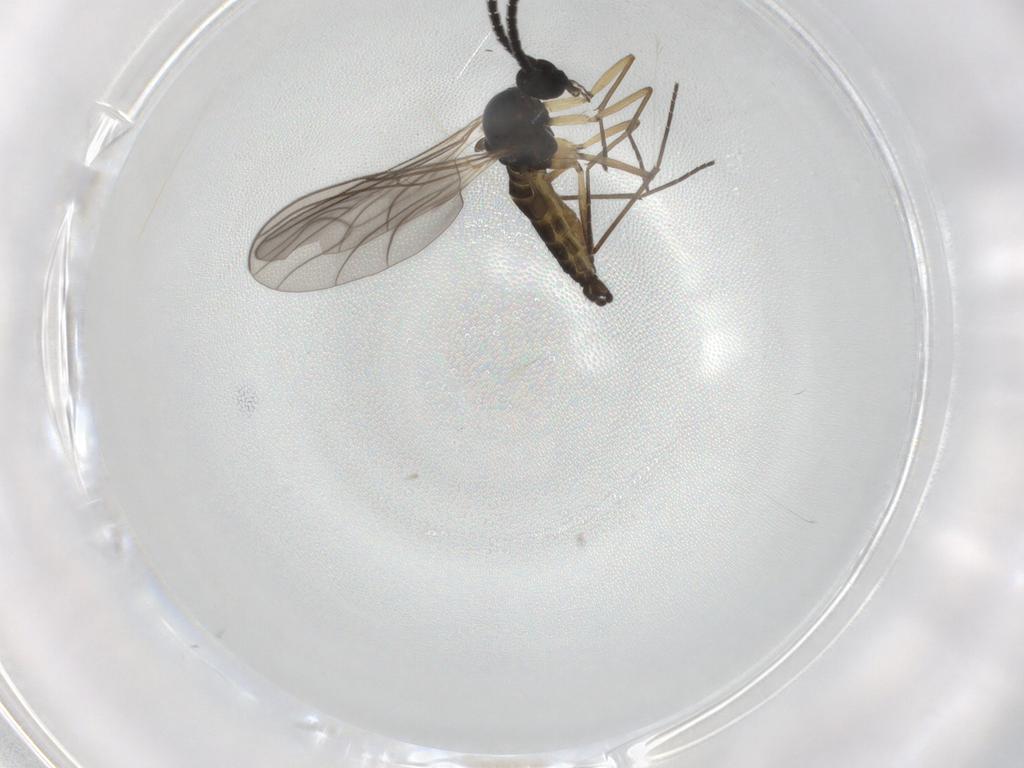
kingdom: Animalia
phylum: Arthropoda
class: Insecta
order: Diptera
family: Sciaridae
